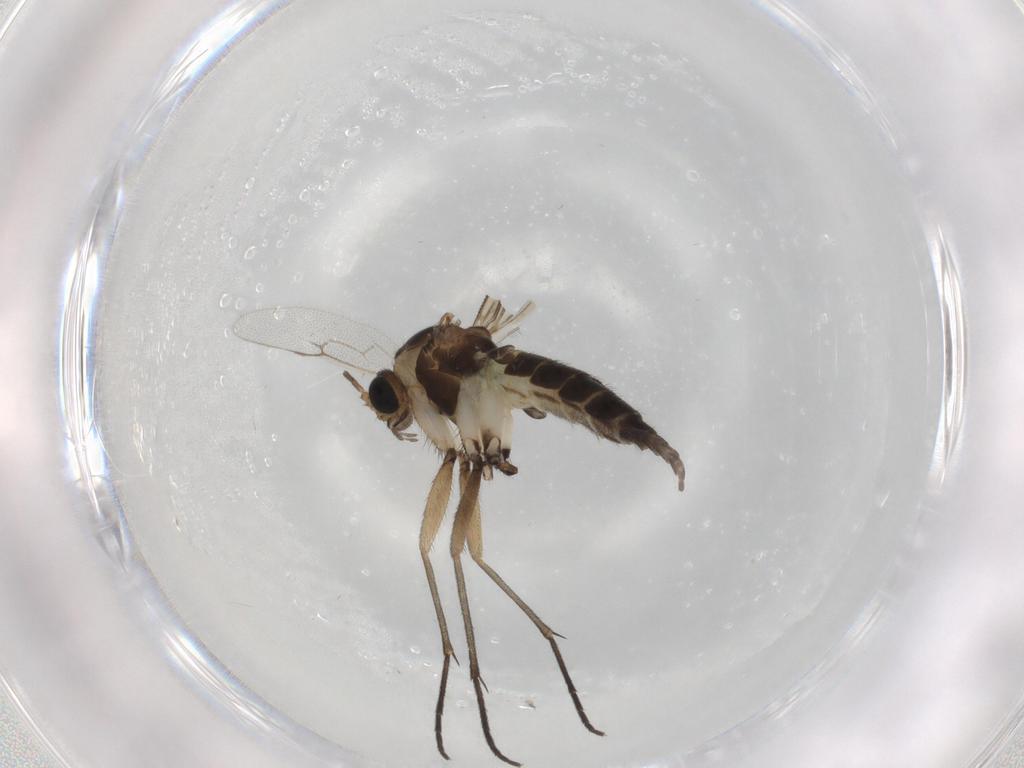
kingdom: Animalia
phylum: Arthropoda
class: Insecta
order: Diptera
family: Sciaridae
